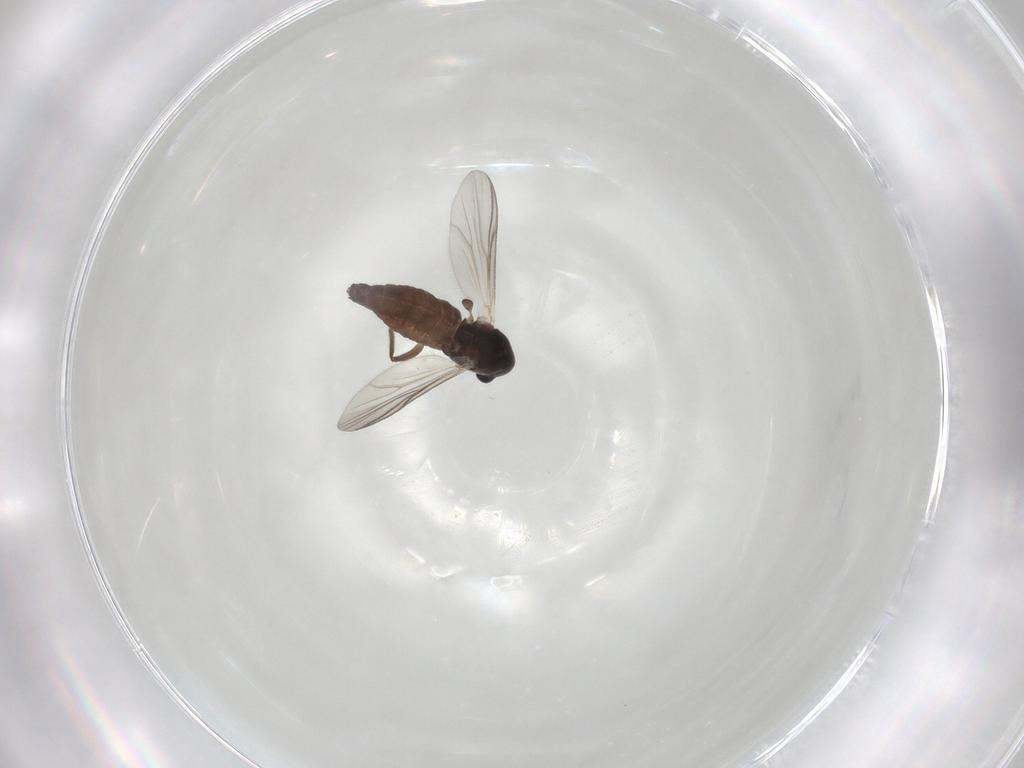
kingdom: Animalia
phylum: Arthropoda
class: Insecta
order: Diptera
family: Chironomidae
